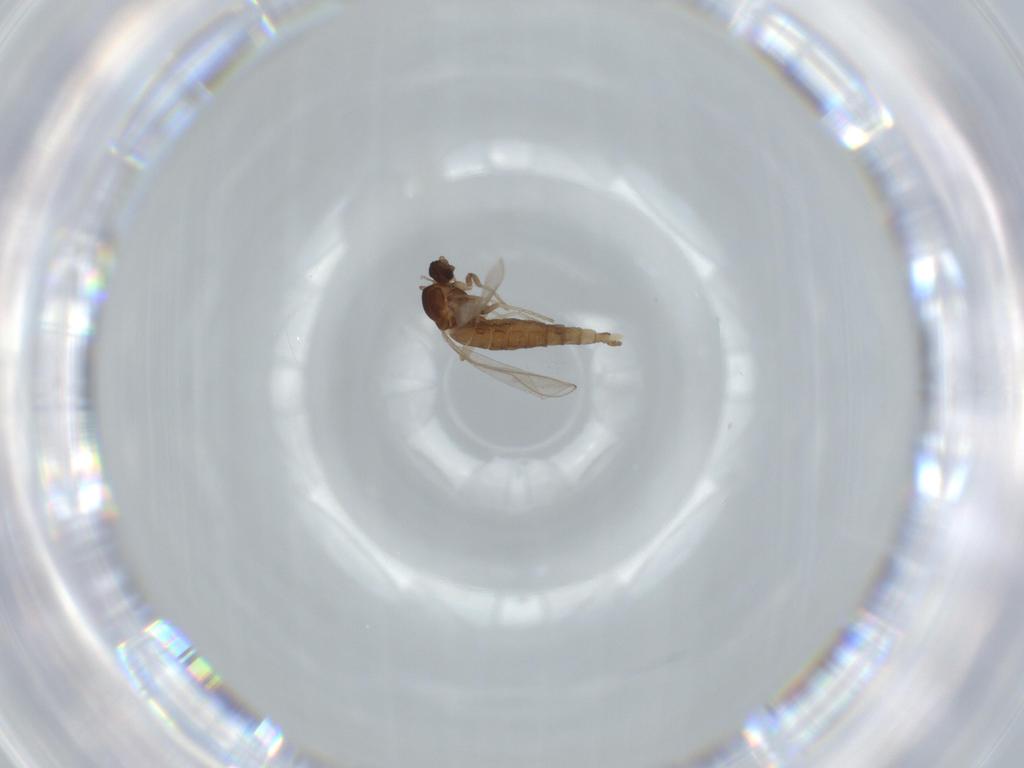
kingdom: Animalia
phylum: Arthropoda
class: Insecta
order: Diptera
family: Cecidomyiidae
